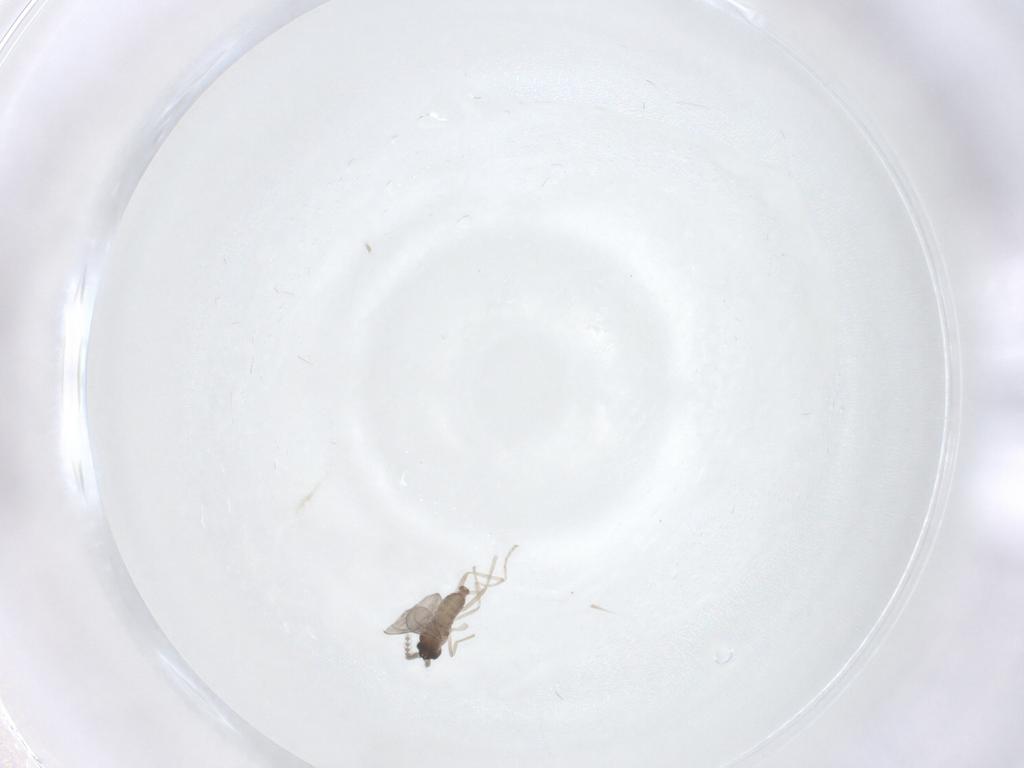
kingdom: Animalia
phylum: Arthropoda
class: Insecta
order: Diptera
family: Cecidomyiidae
